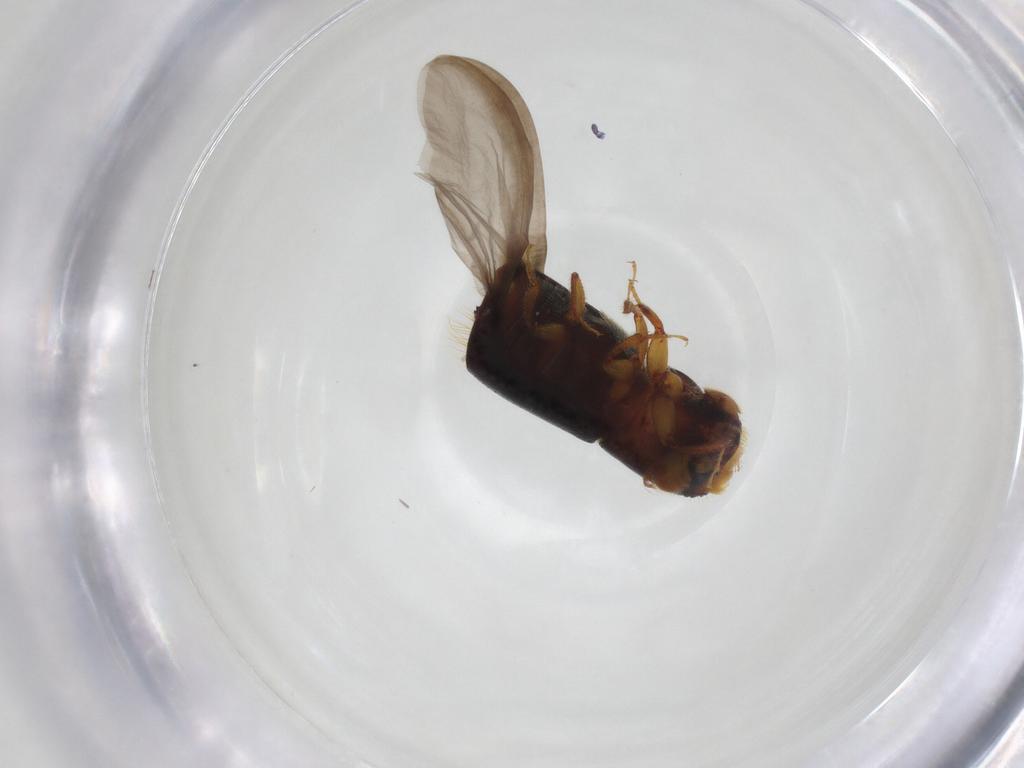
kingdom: Animalia
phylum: Arthropoda
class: Insecta
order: Coleoptera
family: Curculionidae
